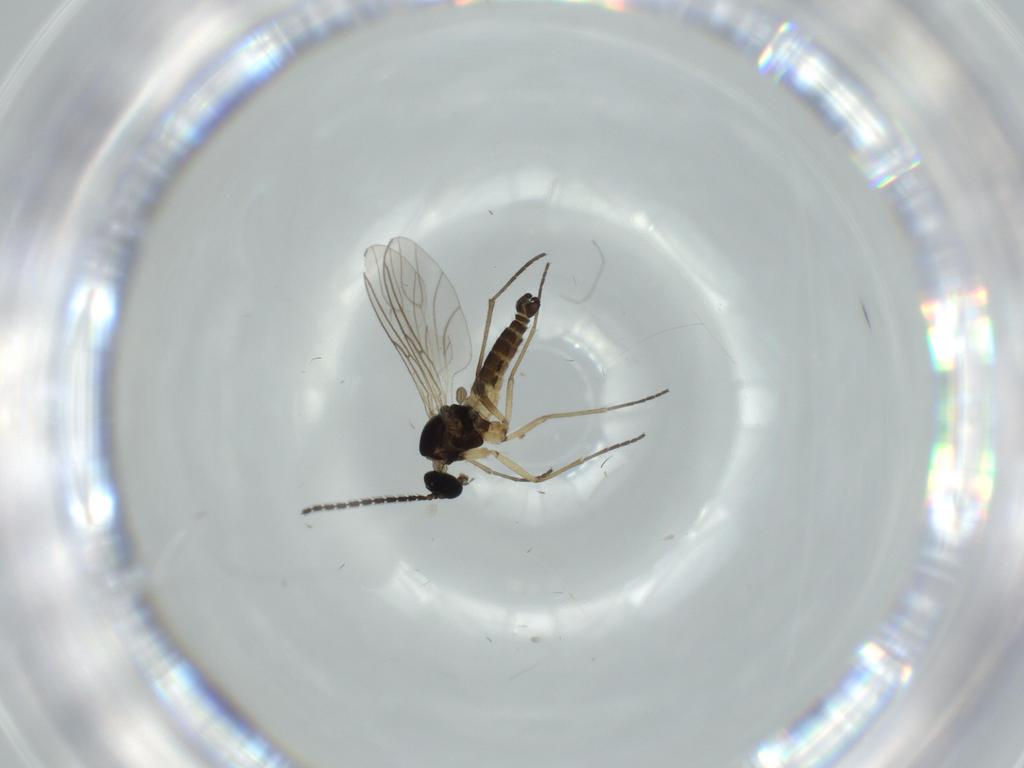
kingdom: Animalia
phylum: Arthropoda
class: Insecta
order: Diptera
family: Sciaridae
